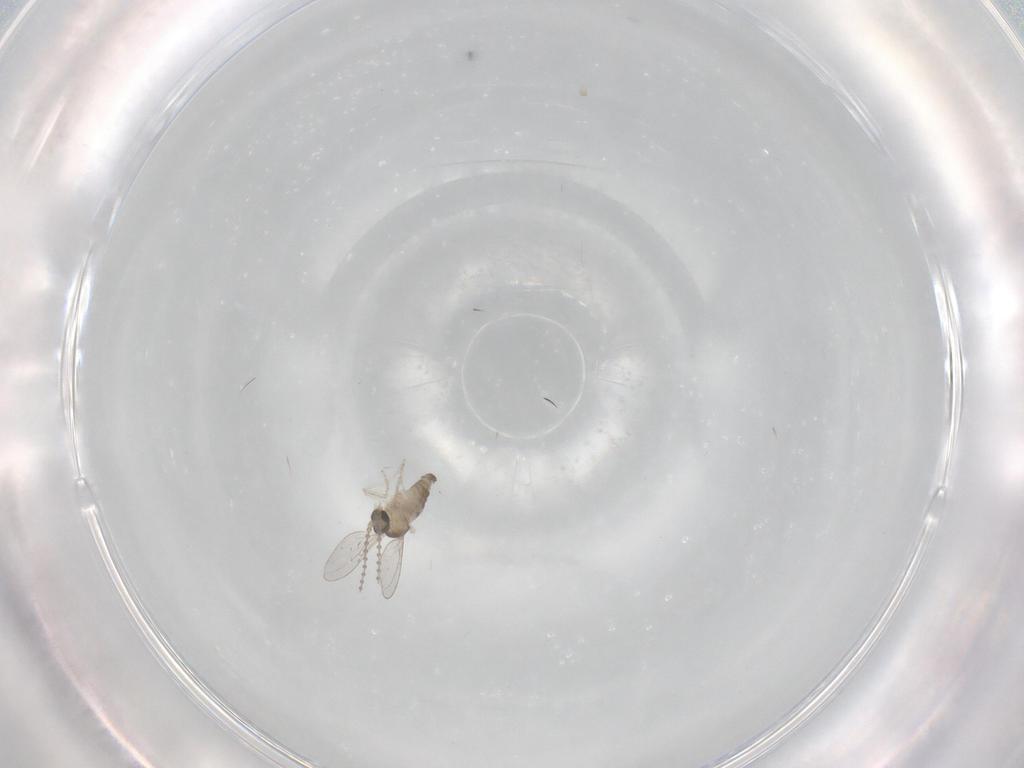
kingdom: Animalia
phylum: Arthropoda
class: Insecta
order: Diptera
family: Cecidomyiidae
